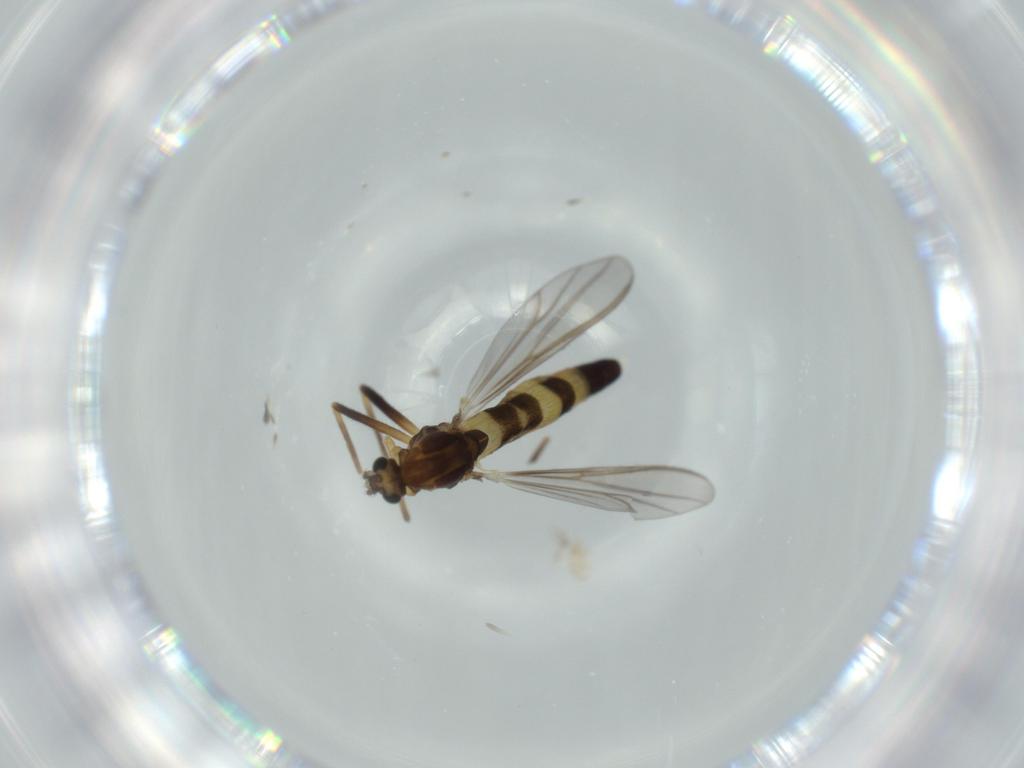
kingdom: Animalia
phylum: Arthropoda
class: Insecta
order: Diptera
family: Chironomidae
